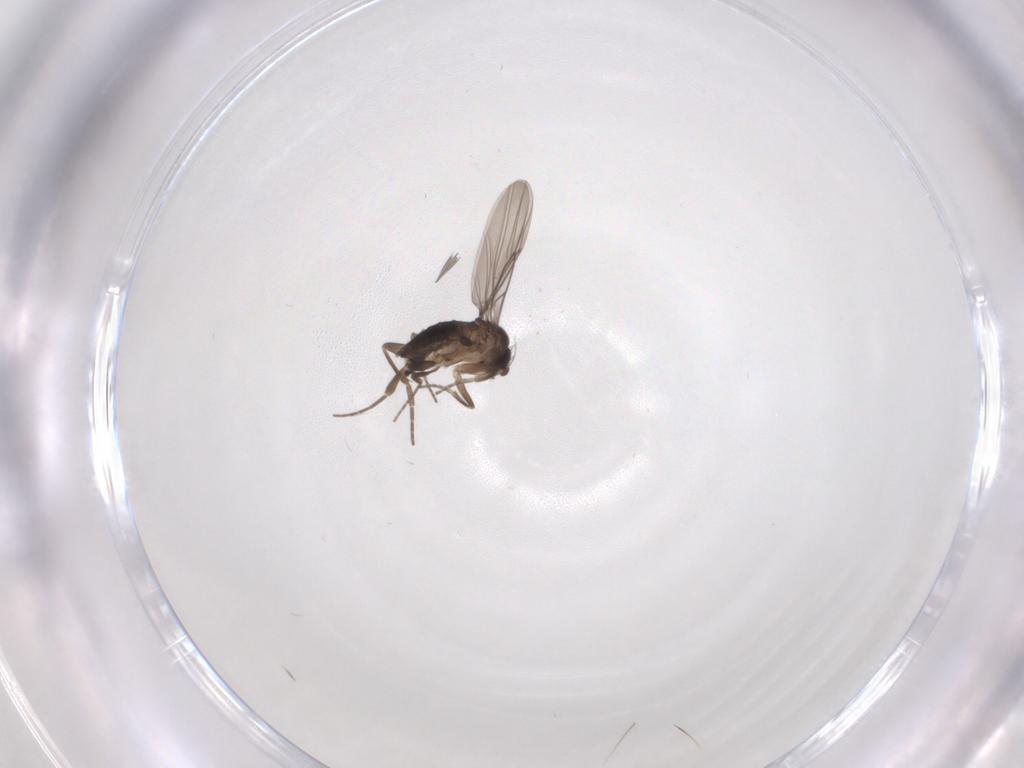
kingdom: Animalia
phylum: Arthropoda
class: Insecta
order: Diptera
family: Phoridae
